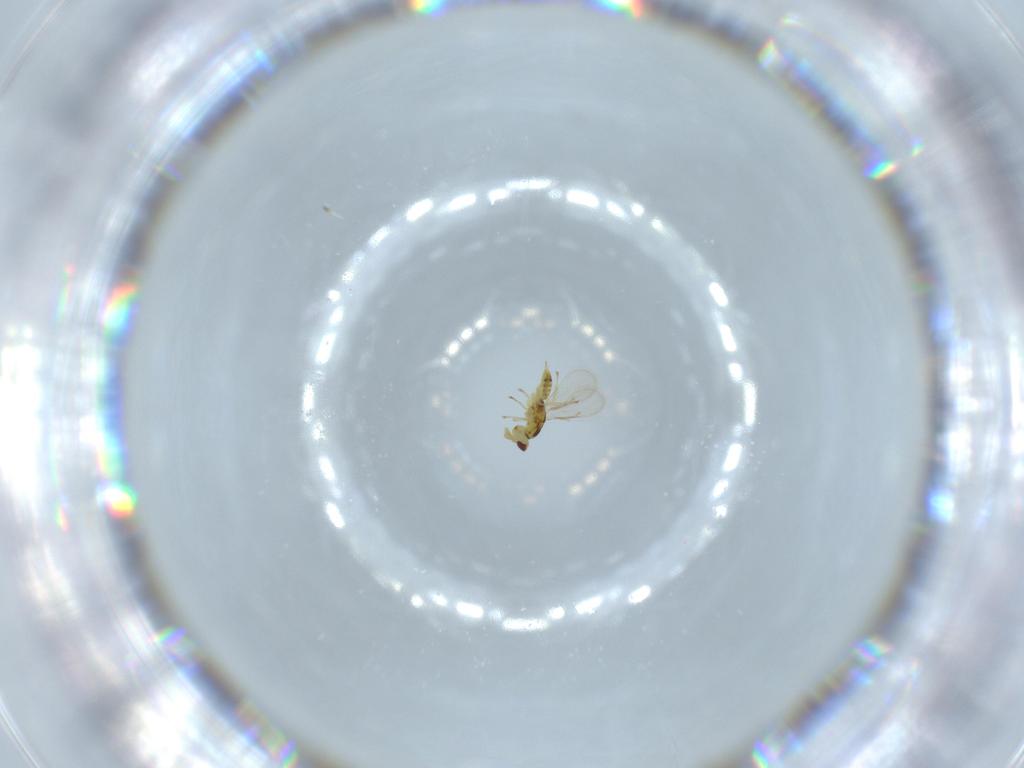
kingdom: Animalia
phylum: Arthropoda
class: Insecta
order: Hymenoptera
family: Eulophidae
